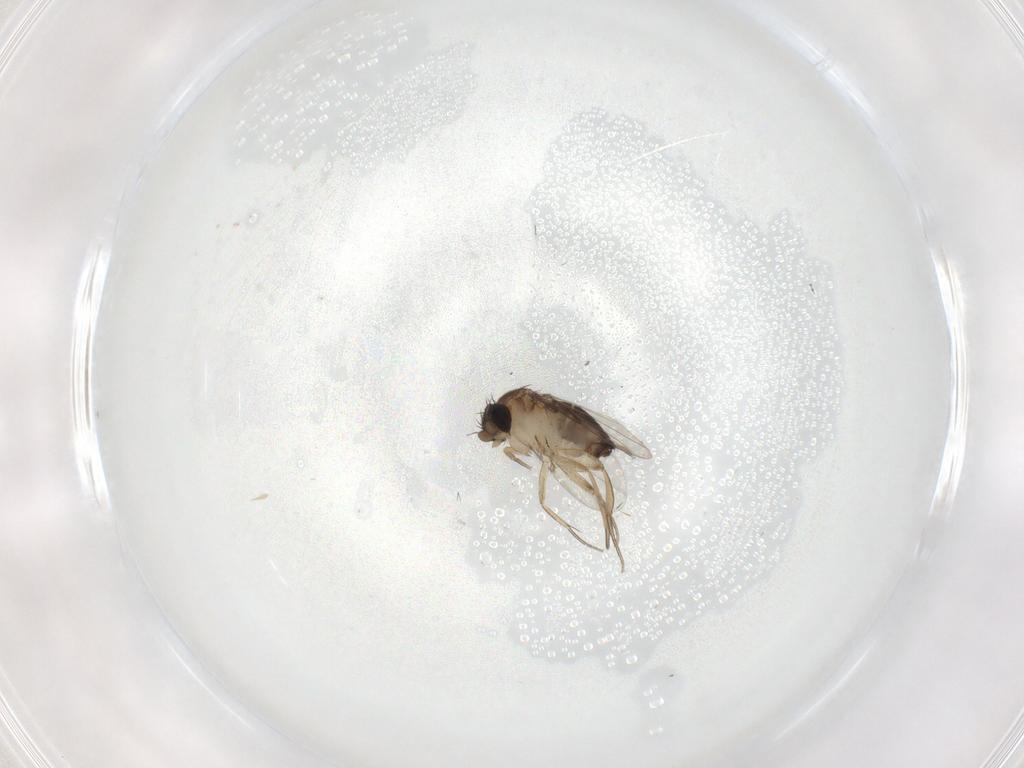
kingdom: Animalia
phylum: Arthropoda
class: Insecta
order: Diptera
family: Sciaridae
